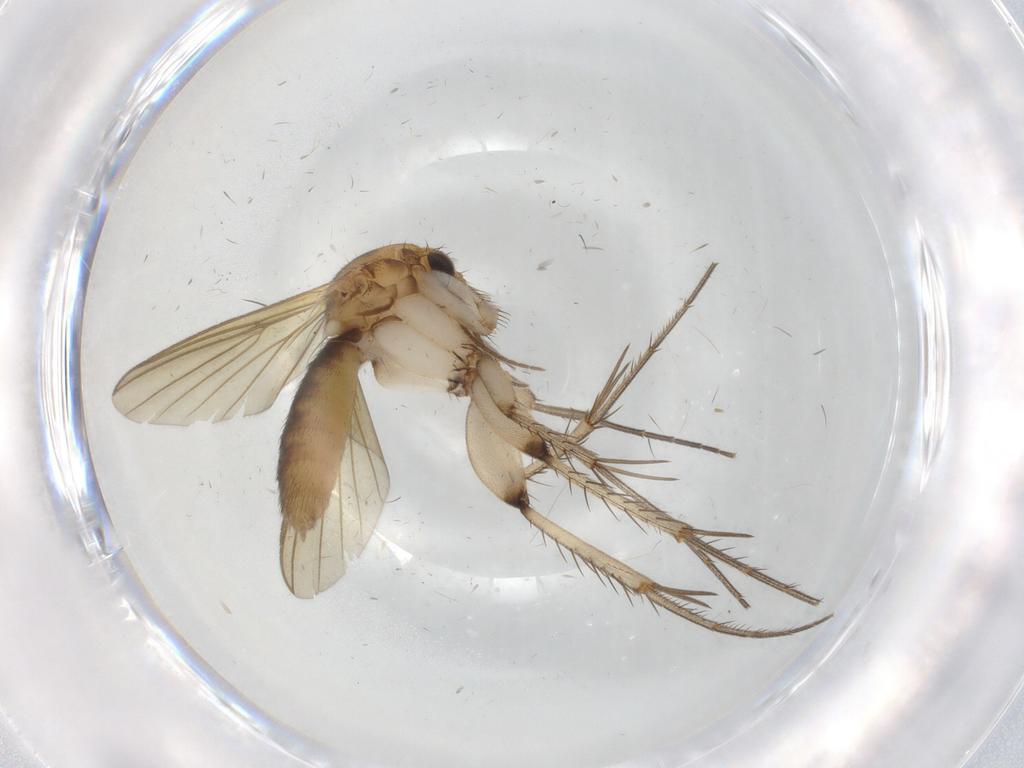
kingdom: Animalia
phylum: Arthropoda
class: Insecta
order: Diptera
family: Mycetophilidae
